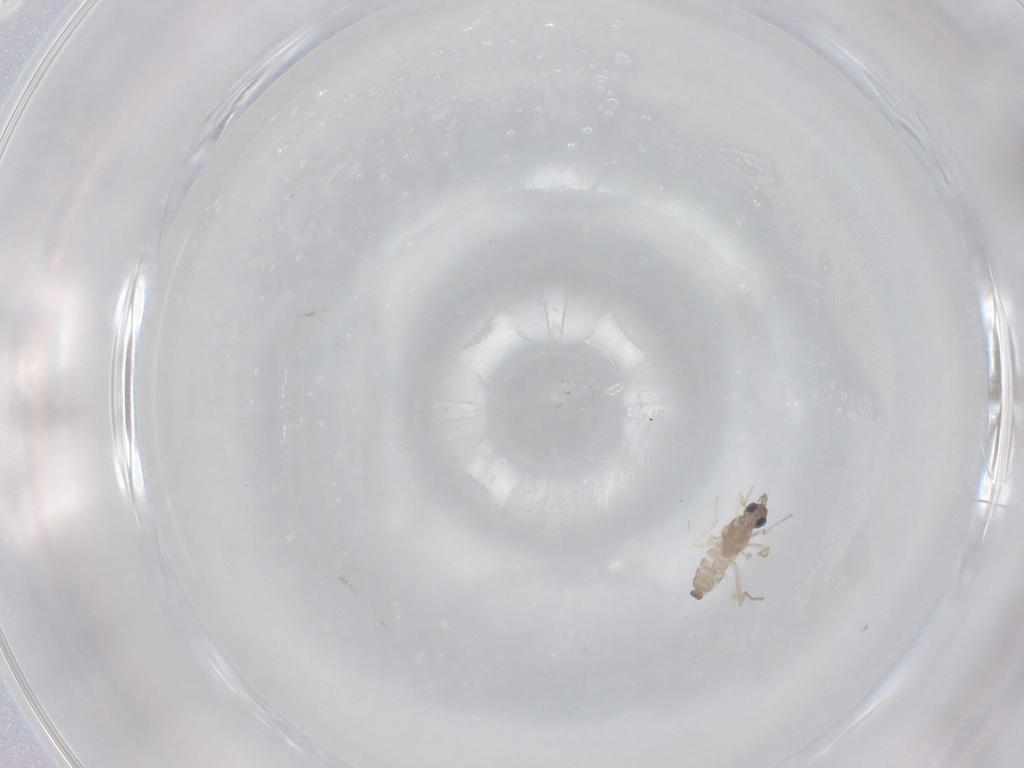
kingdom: Animalia
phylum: Arthropoda
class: Insecta
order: Diptera
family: Cecidomyiidae
